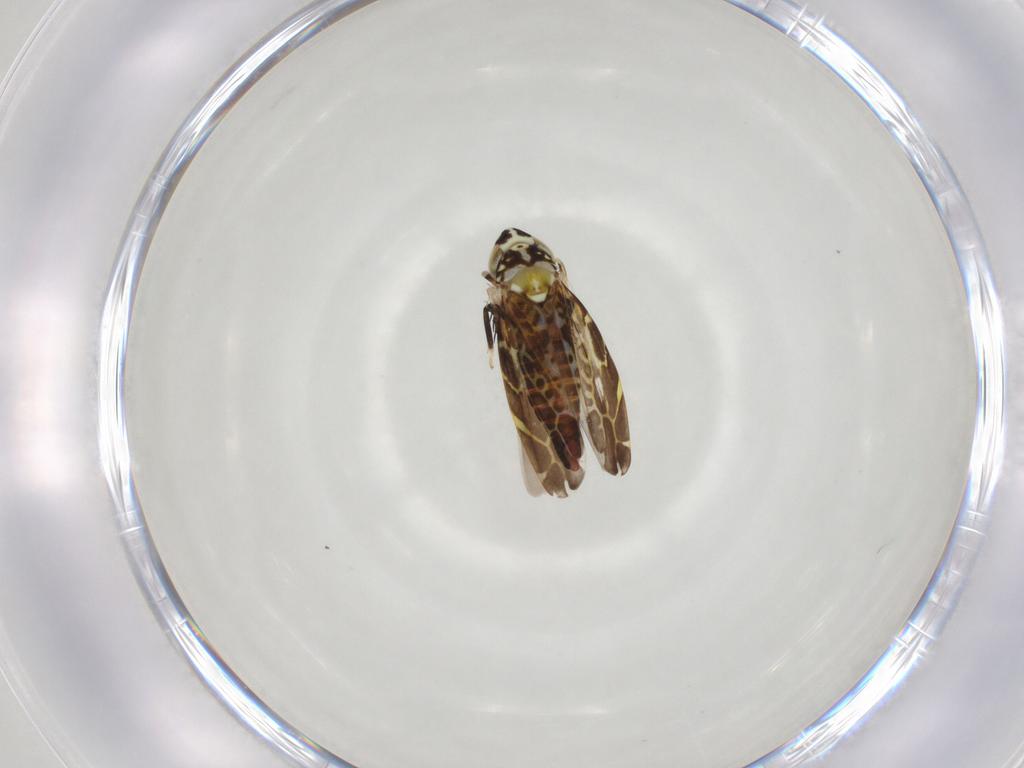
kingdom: Animalia
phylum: Arthropoda
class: Insecta
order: Hemiptera
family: Cicadellidae
